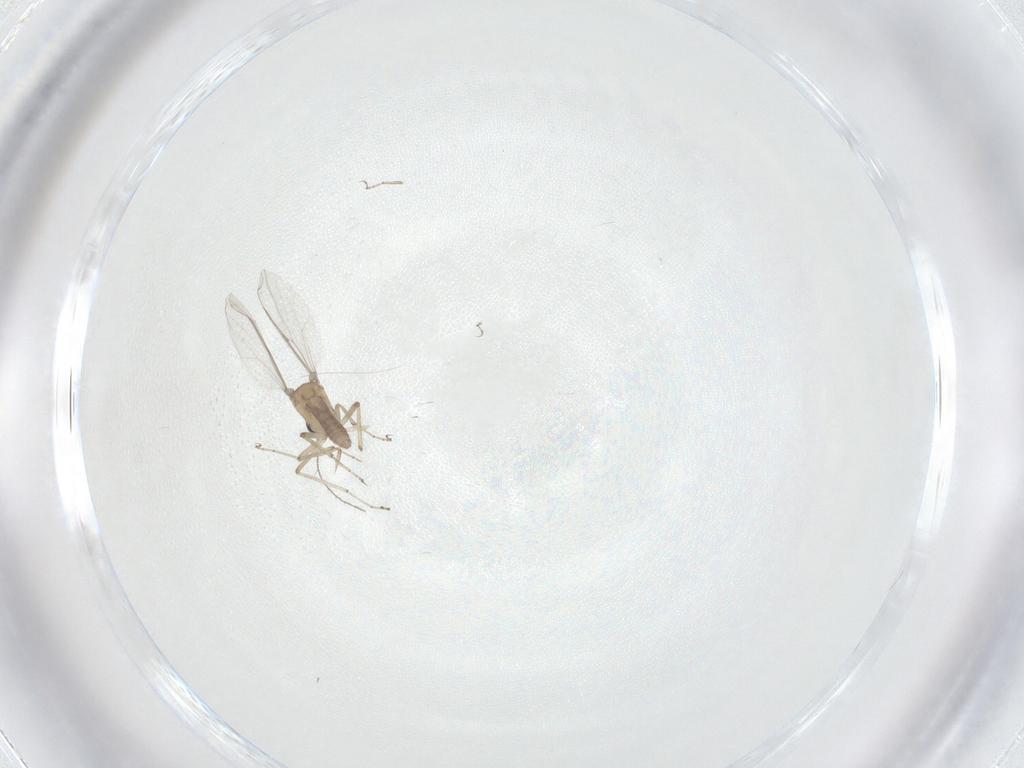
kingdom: Animalia
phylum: Arthropoda
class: Insecta
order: Diptera
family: Ceratopogonidae
